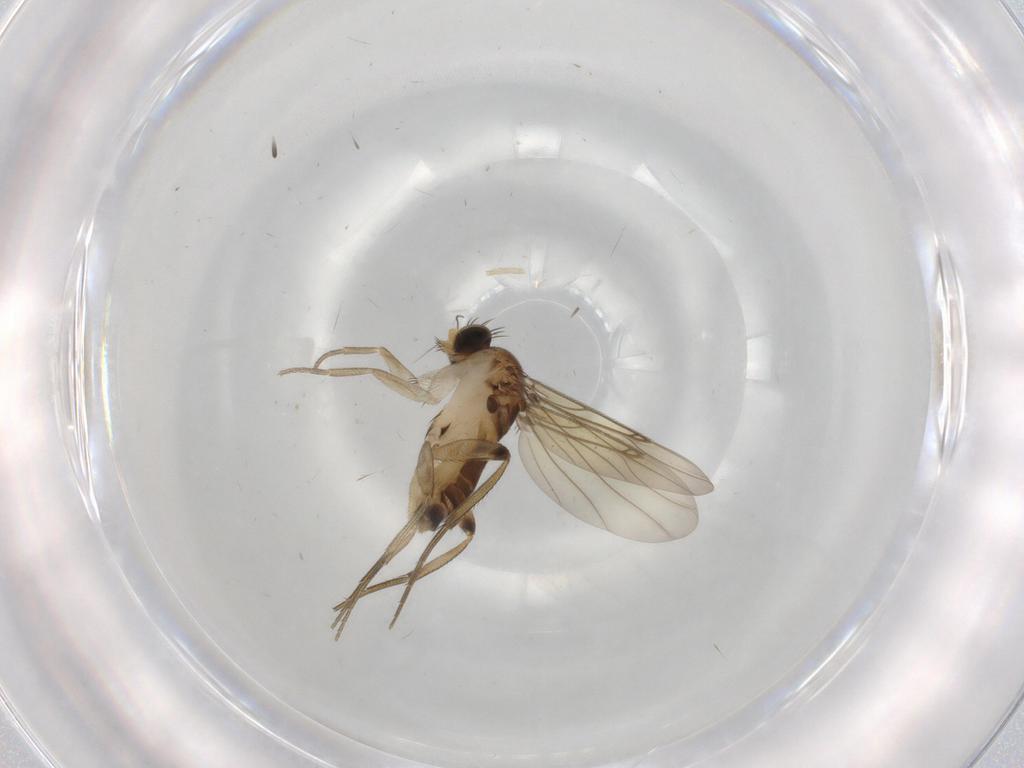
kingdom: Animalia
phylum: Arthropoda
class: Insecta
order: Diptera
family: Phoridae
